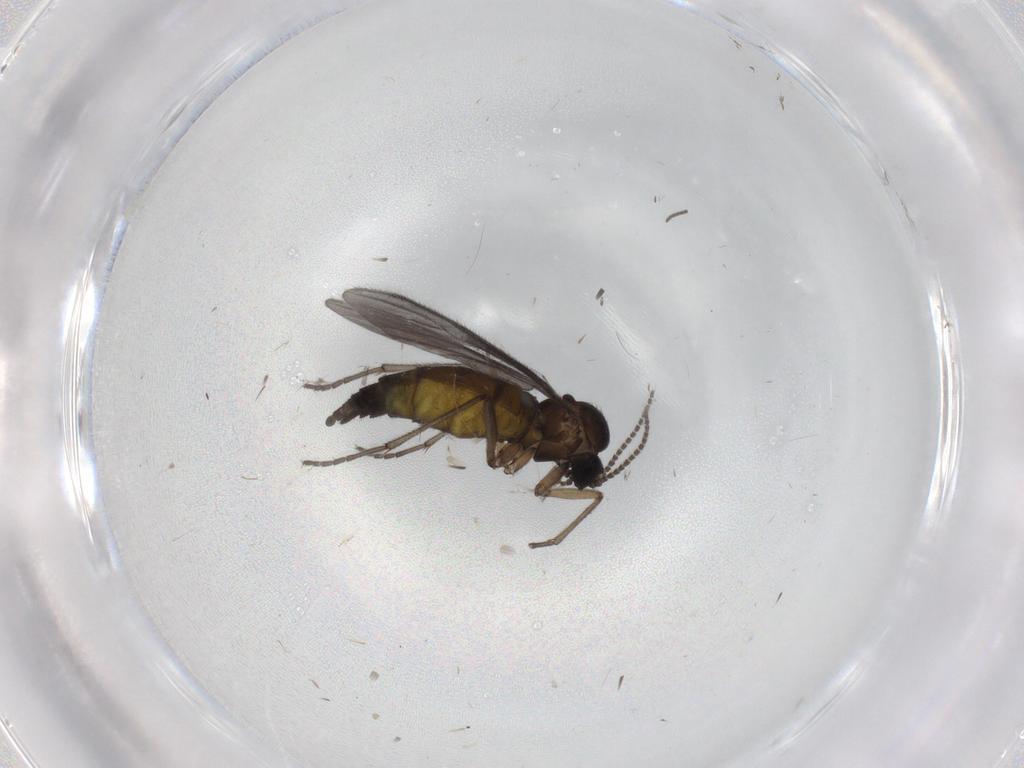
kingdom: Animalia
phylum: Arthropoda
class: Insecta
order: Diptera
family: Sciaridae
